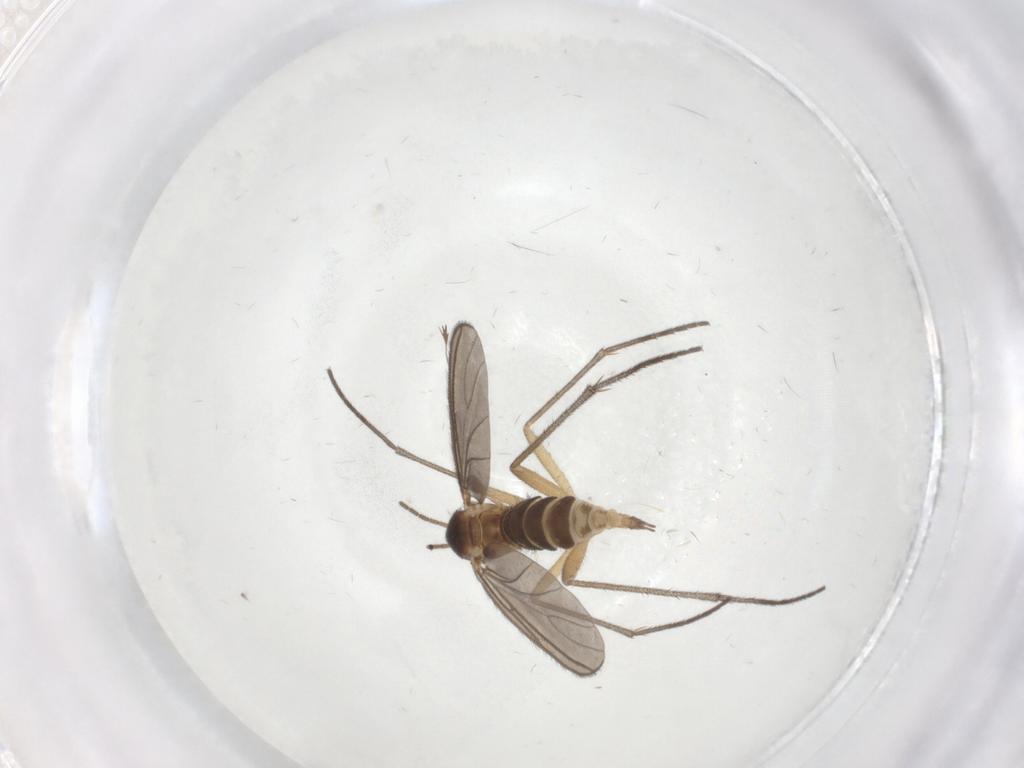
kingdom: Animalia
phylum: Arthropoda
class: Insecta
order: Diptera
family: Sciaridae
